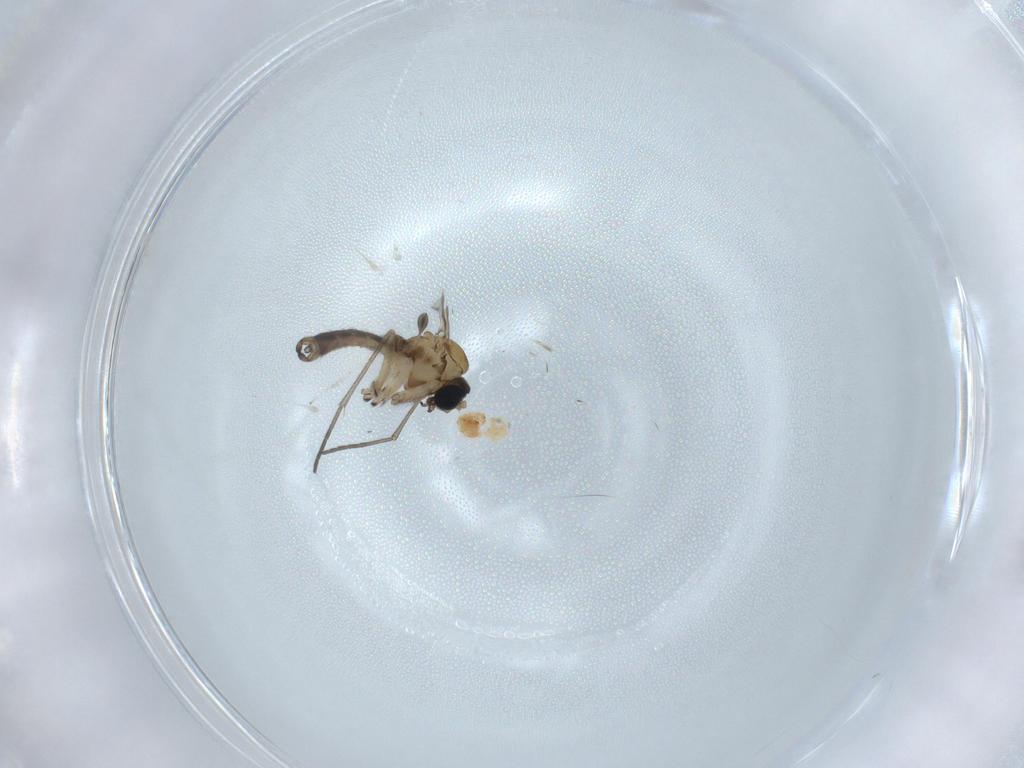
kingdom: Animalia
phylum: Arthropoda
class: Insecta
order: Diptera
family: Sciaridae
